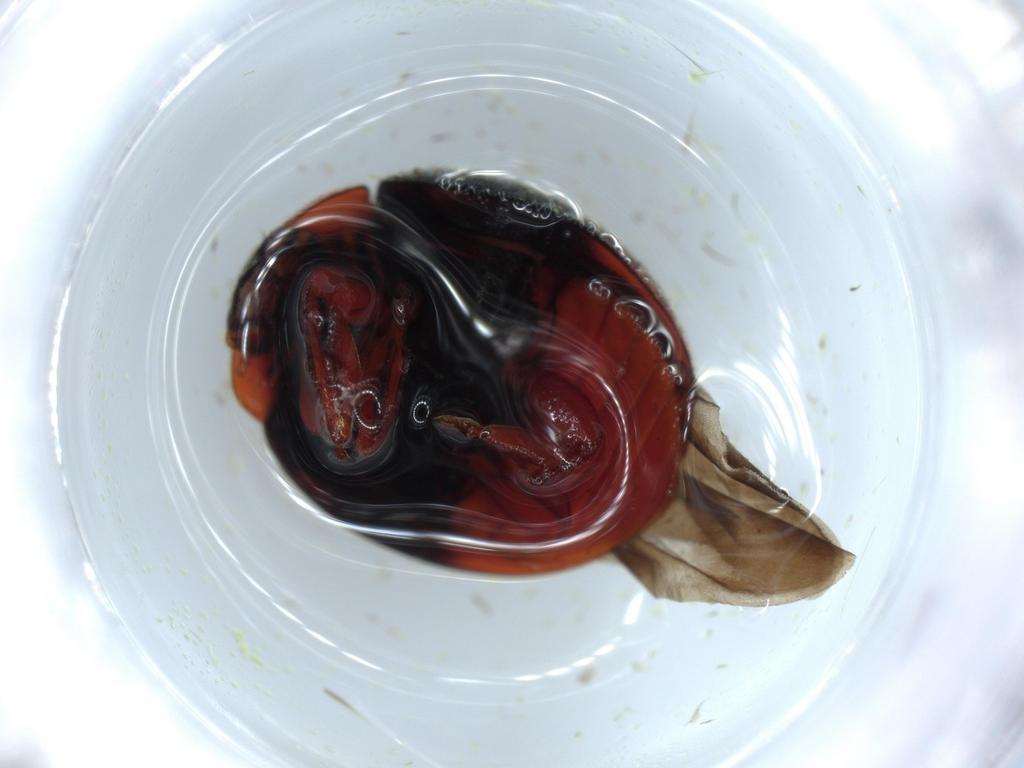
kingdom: Animalia
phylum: Arthropoda
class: Insecta
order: Coleoptera
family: Coccinellidae
